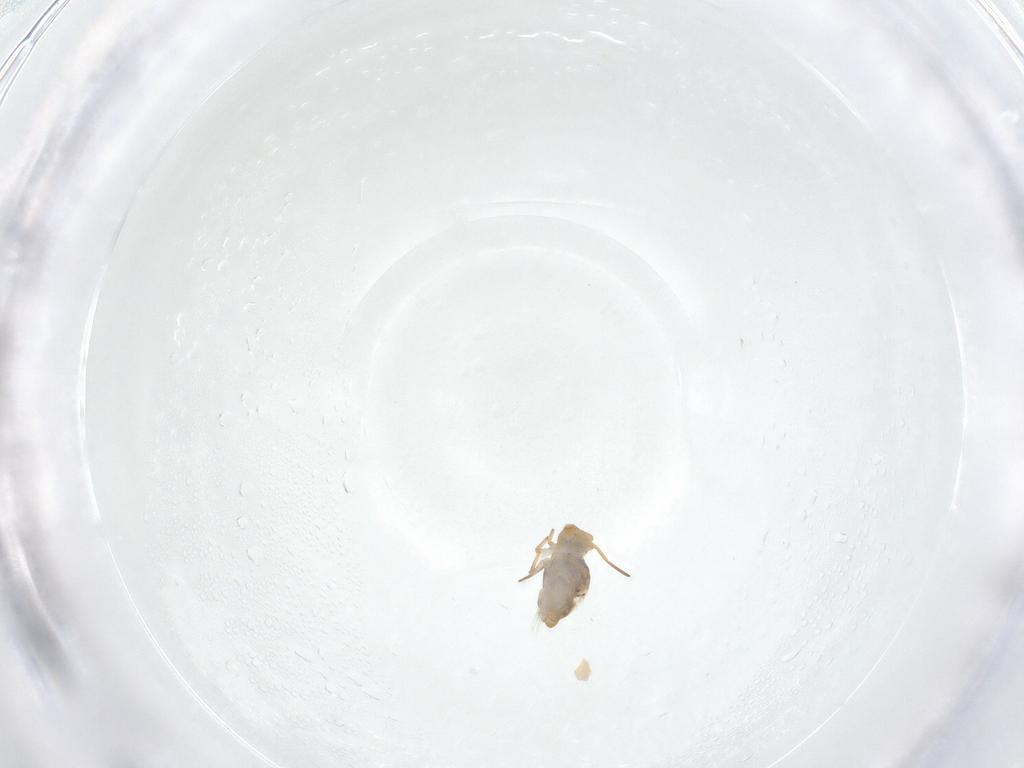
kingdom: Animalia
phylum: Arthropoda
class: Collembola
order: Symphypleona
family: Katiannidae
